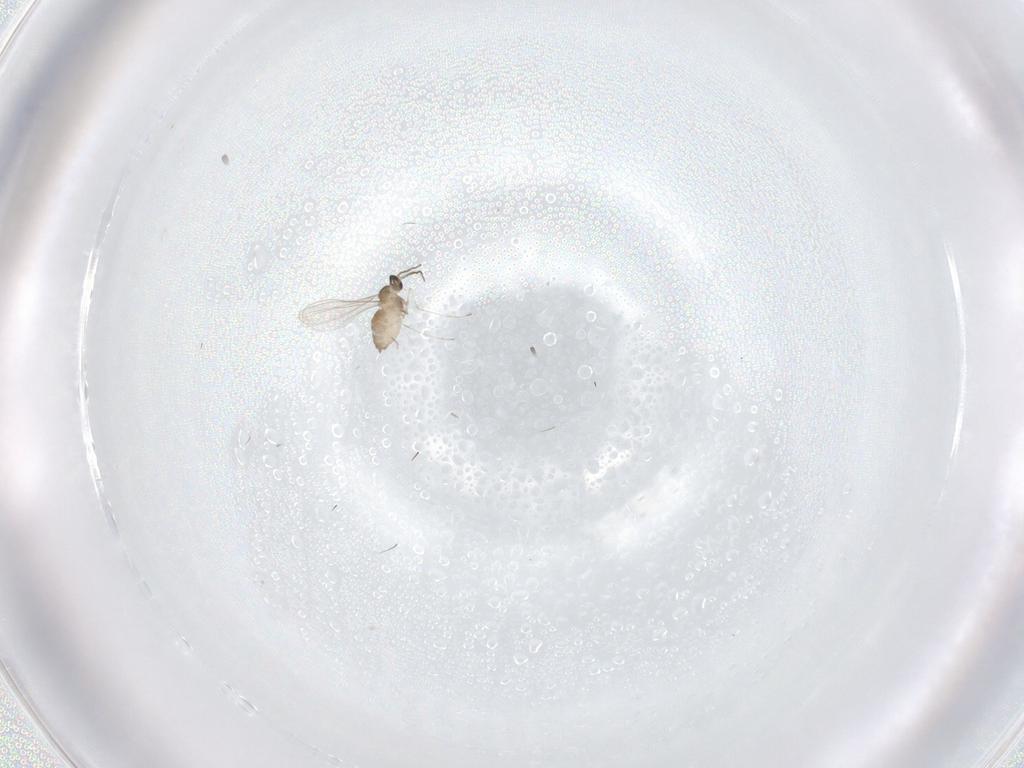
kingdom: Animalia
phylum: Arthropoda
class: Insecta
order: Diptera
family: Cecidomyiidae
